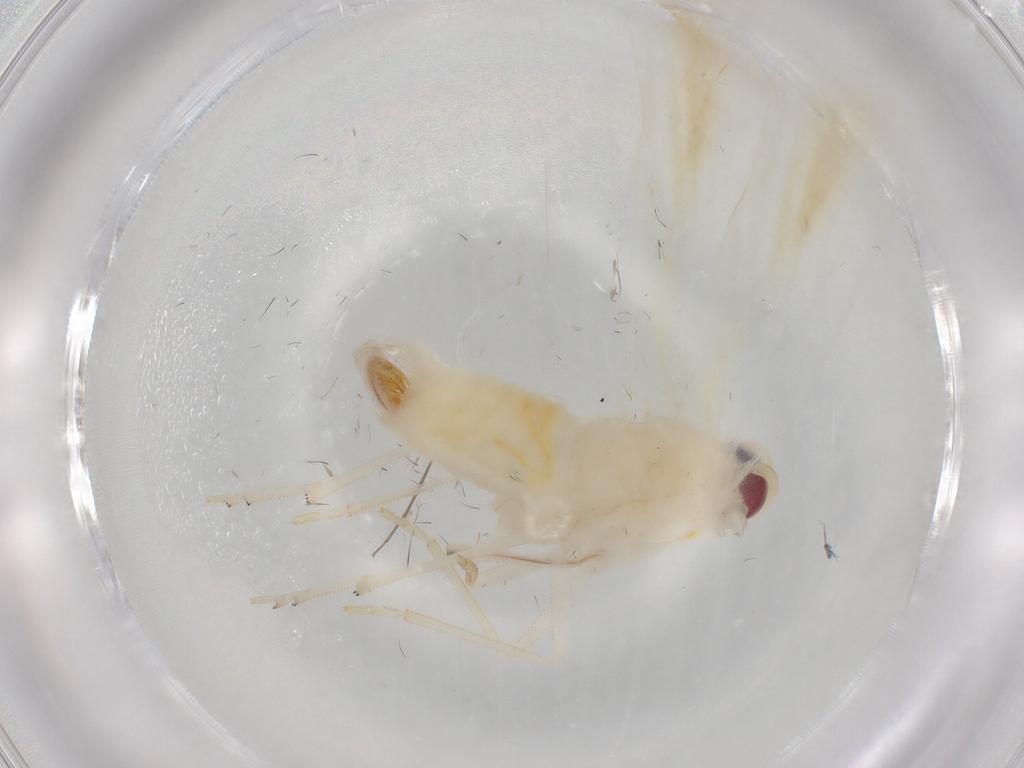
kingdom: Animalia
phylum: Arthropoda
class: Insecta
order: Hemiptera
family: Derbidae
